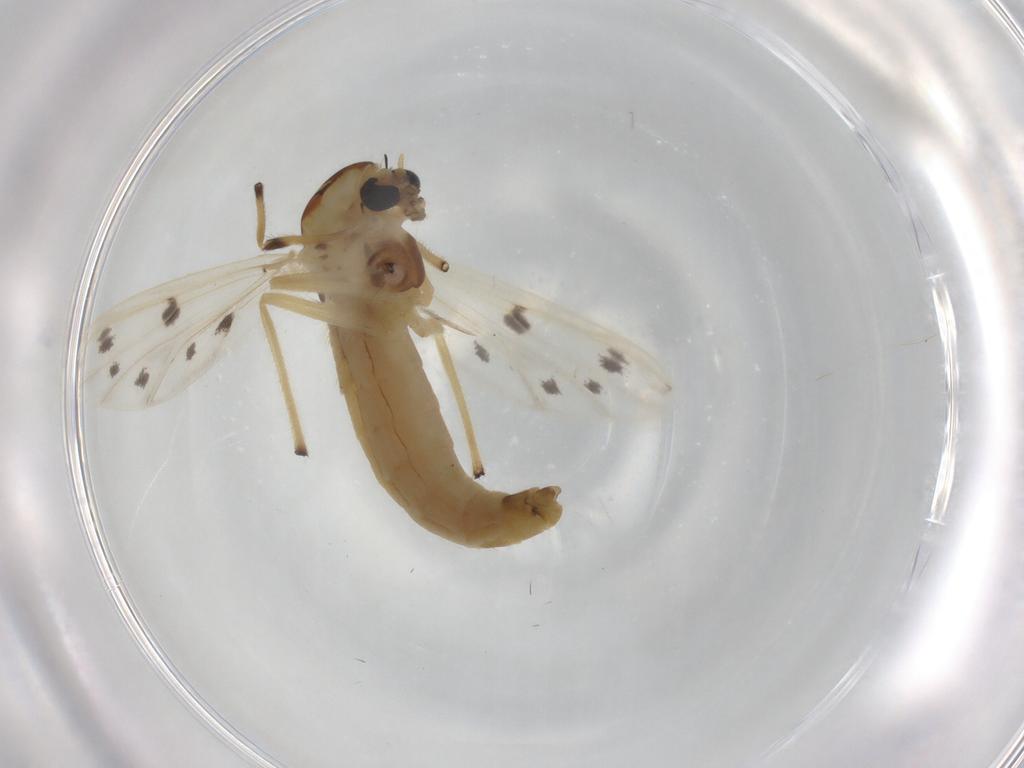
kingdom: Animalia
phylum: Arthropoda
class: Insecta
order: Diptera
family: Chironomidae
